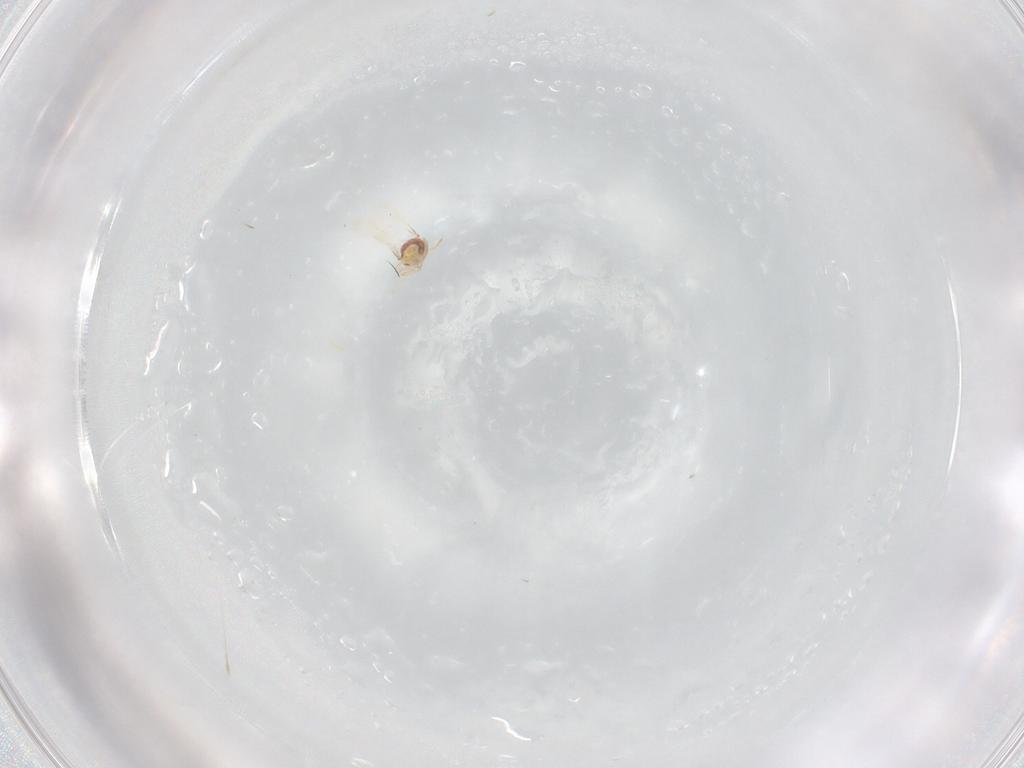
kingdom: Animalia
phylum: Arthropoda
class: Insecta
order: Hymenoptera
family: Aphelinidae
